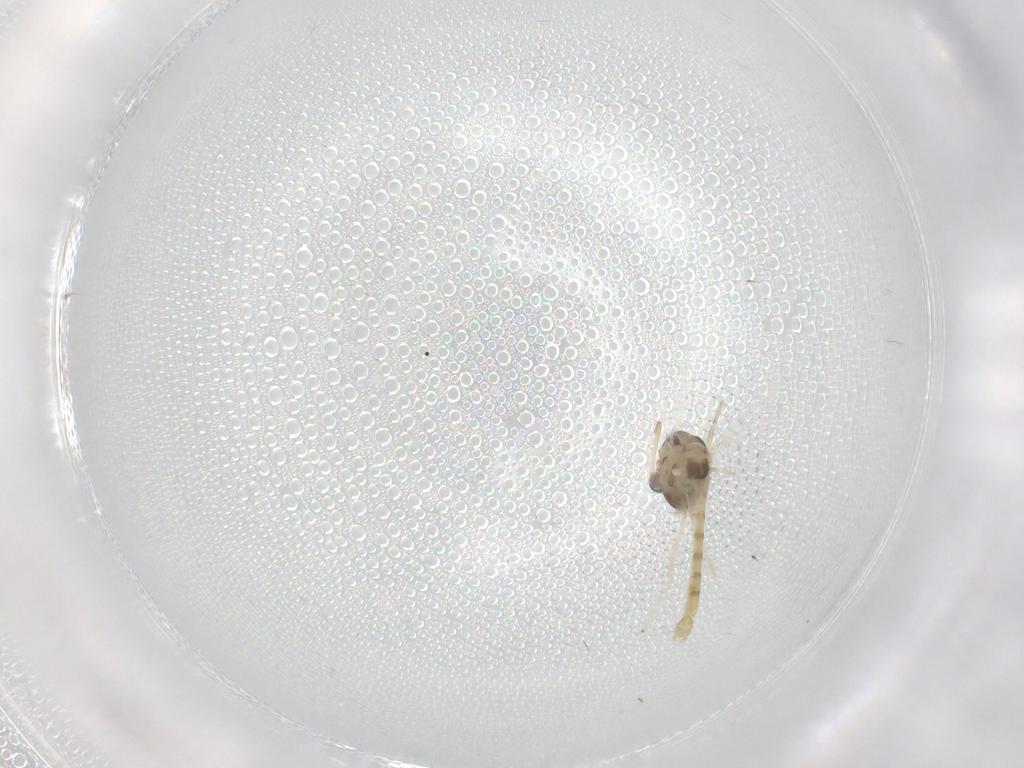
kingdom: Animalia
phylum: Arthropoda
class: Insecta
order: Diptera
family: Chironomidae
